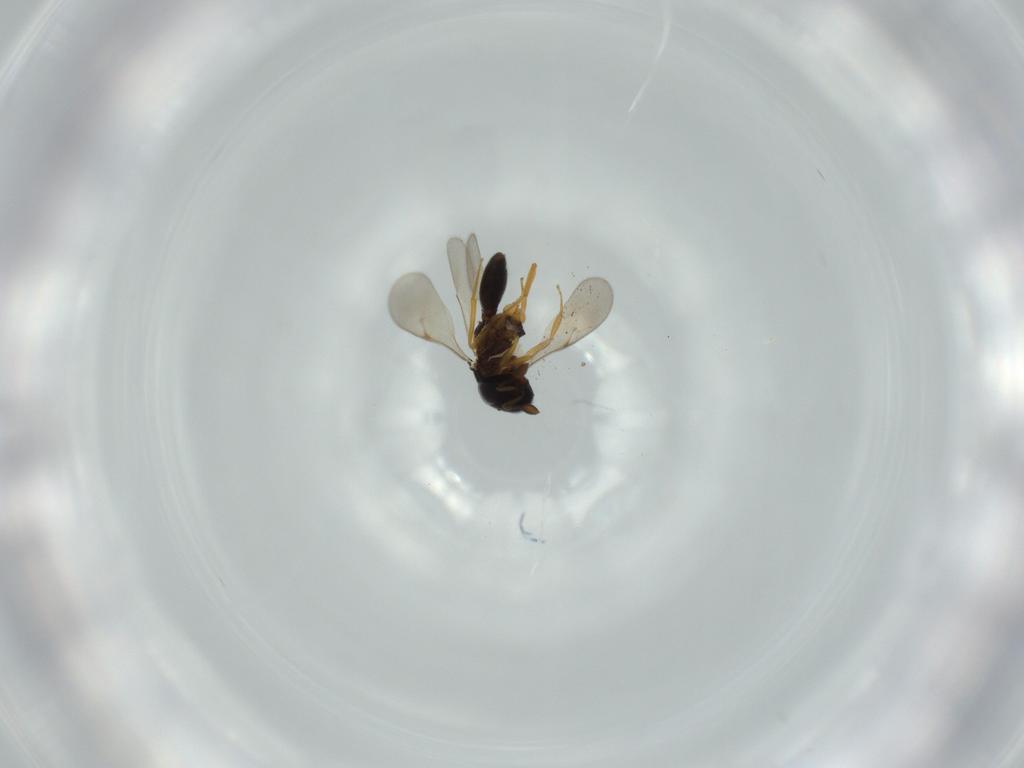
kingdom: Animalia
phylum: Arthropoda
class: Insecta
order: Hymenoptera
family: Scelionidae
